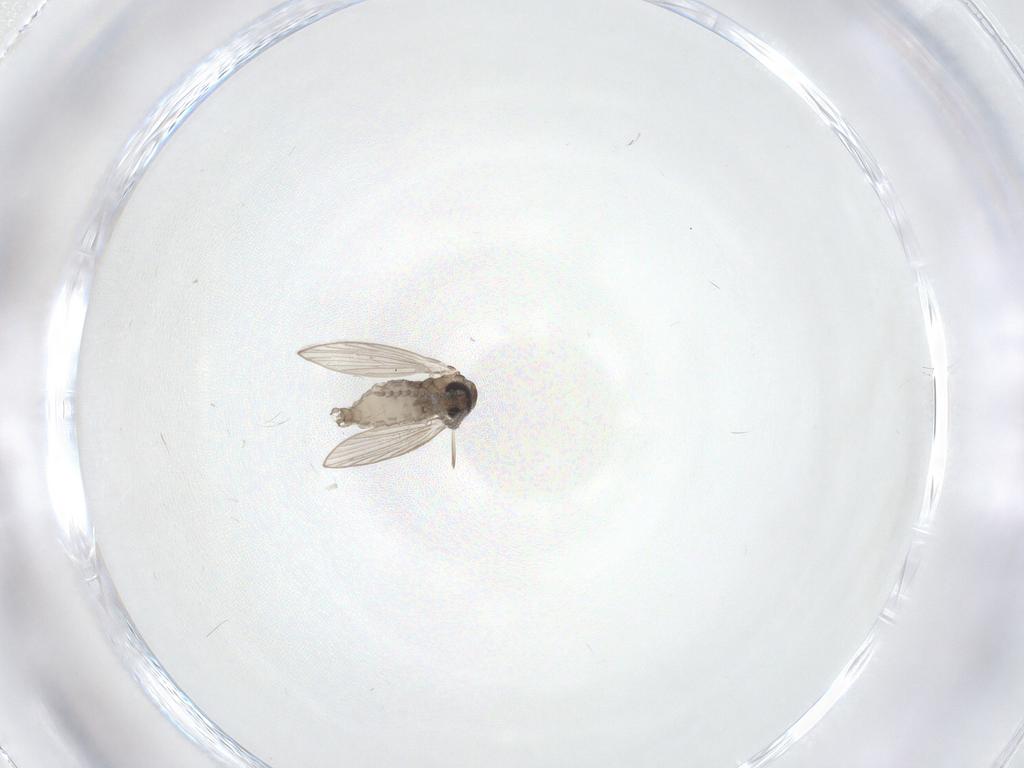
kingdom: Animalia
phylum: Arthropoda
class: Insecta
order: Diptera
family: Psychodidae
